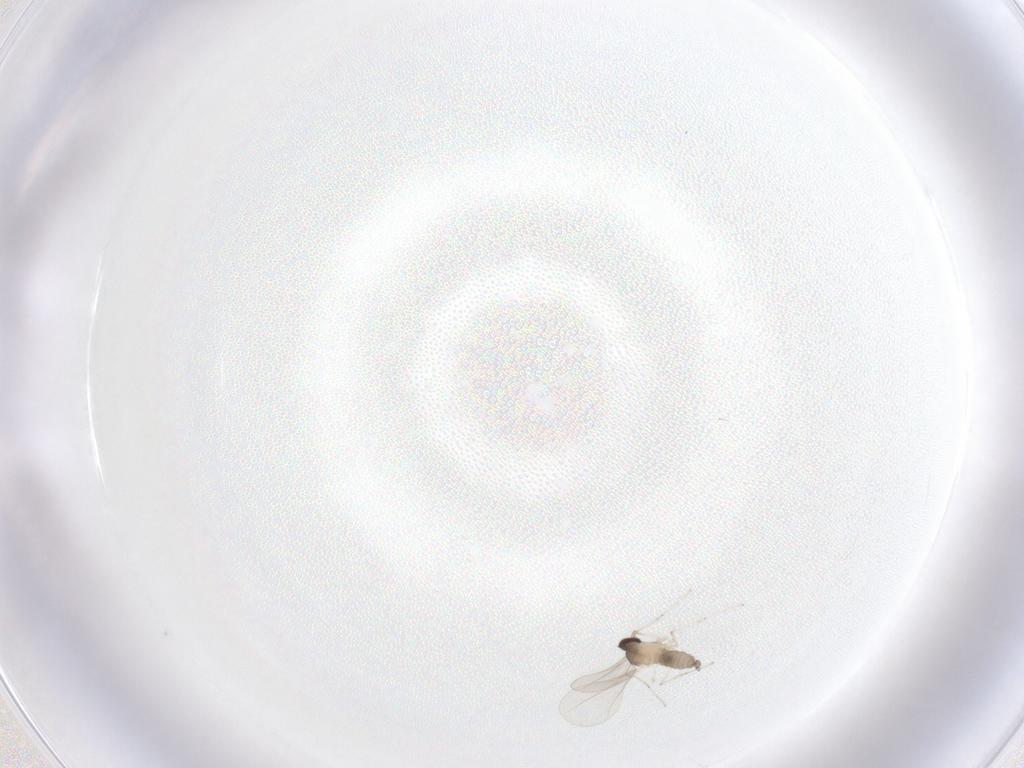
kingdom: Animalia
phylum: Arthropoda
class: Insecta
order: Diptera
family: Cecidomyiidae
